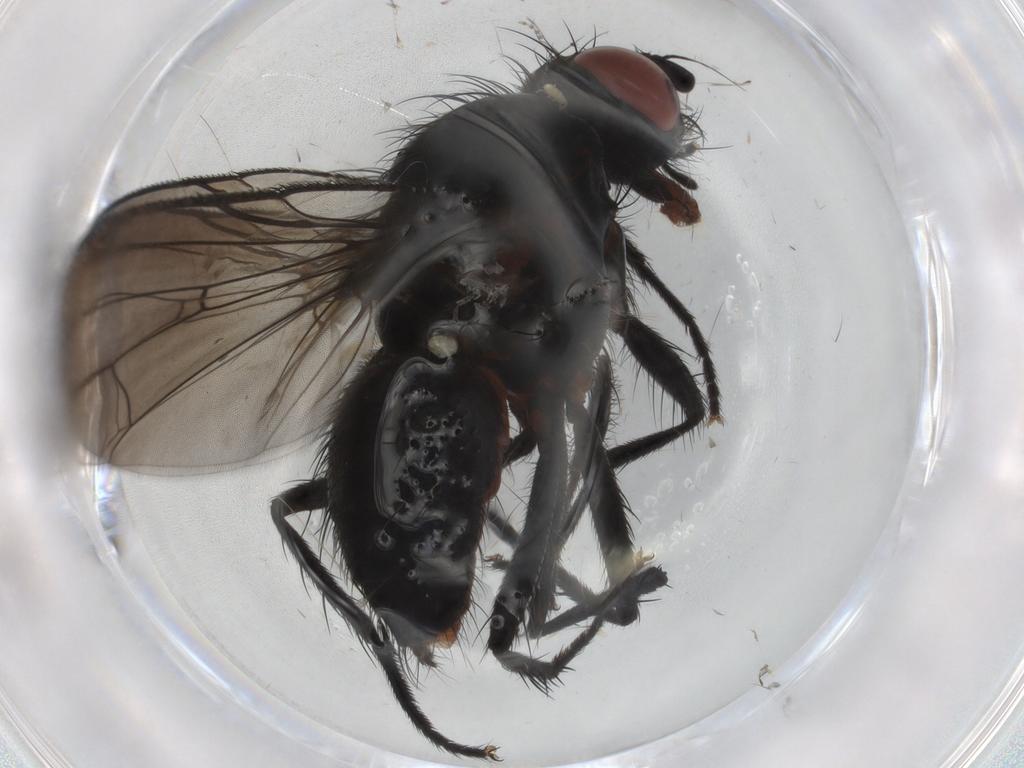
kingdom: Animalia
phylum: Arthropoda
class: Insecta
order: Diptera
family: Anthomyiidae
